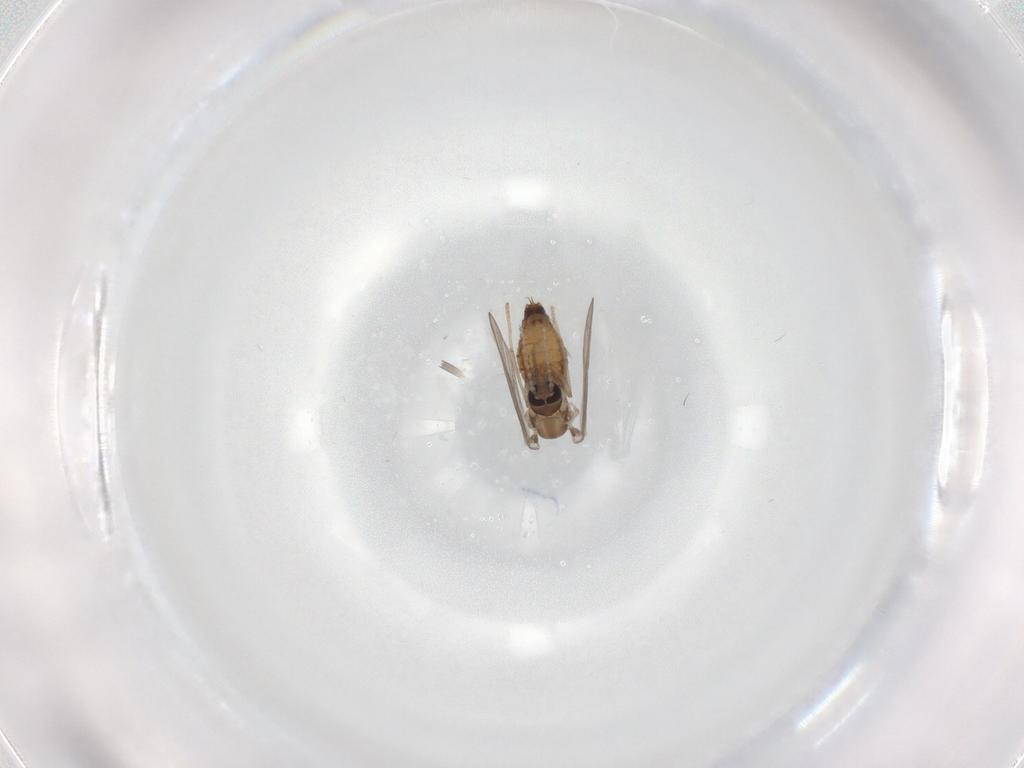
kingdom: Animalia
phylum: Arthropoda
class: Insecta
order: Diptera
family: Psychodidae
